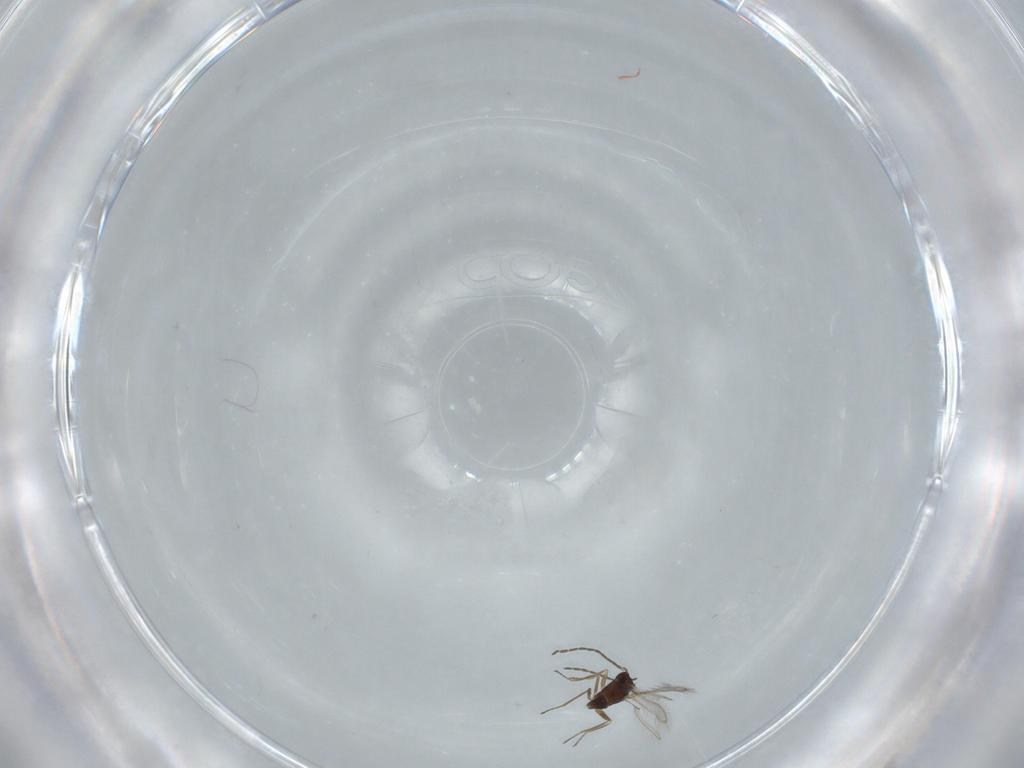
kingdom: Animalia
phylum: Arthropoda
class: Insecta
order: Hymenoptera
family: Mymaridae
